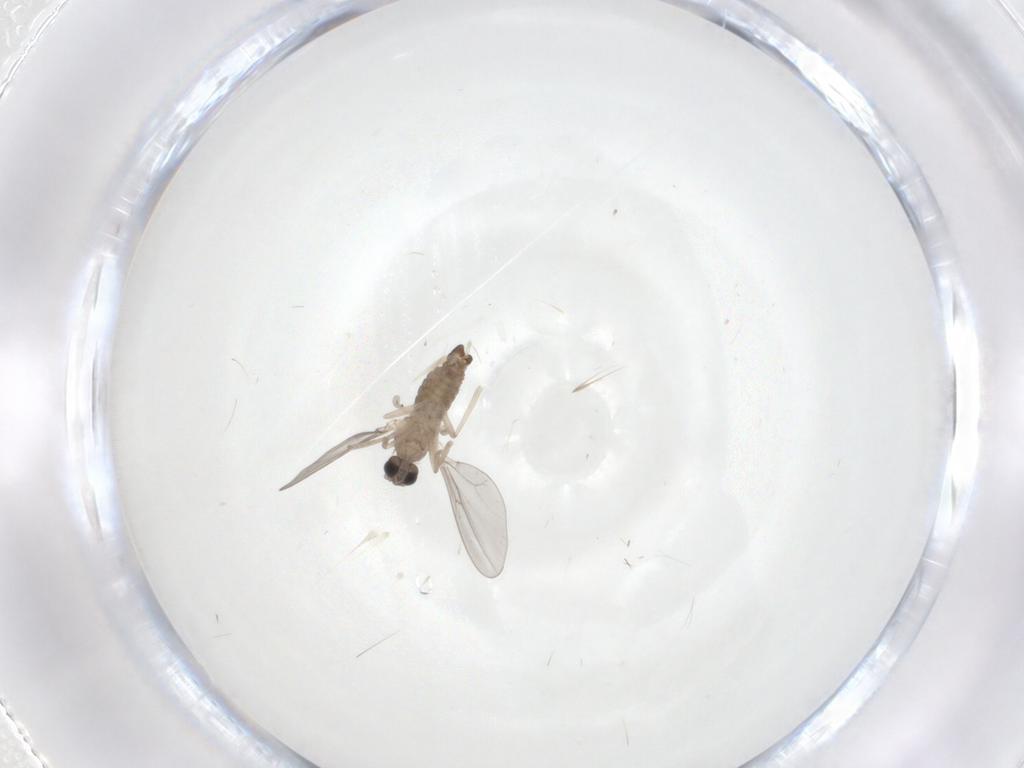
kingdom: Animalia
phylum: Arthropoda
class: Insecta
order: Diptera
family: Cecidomyiidae
